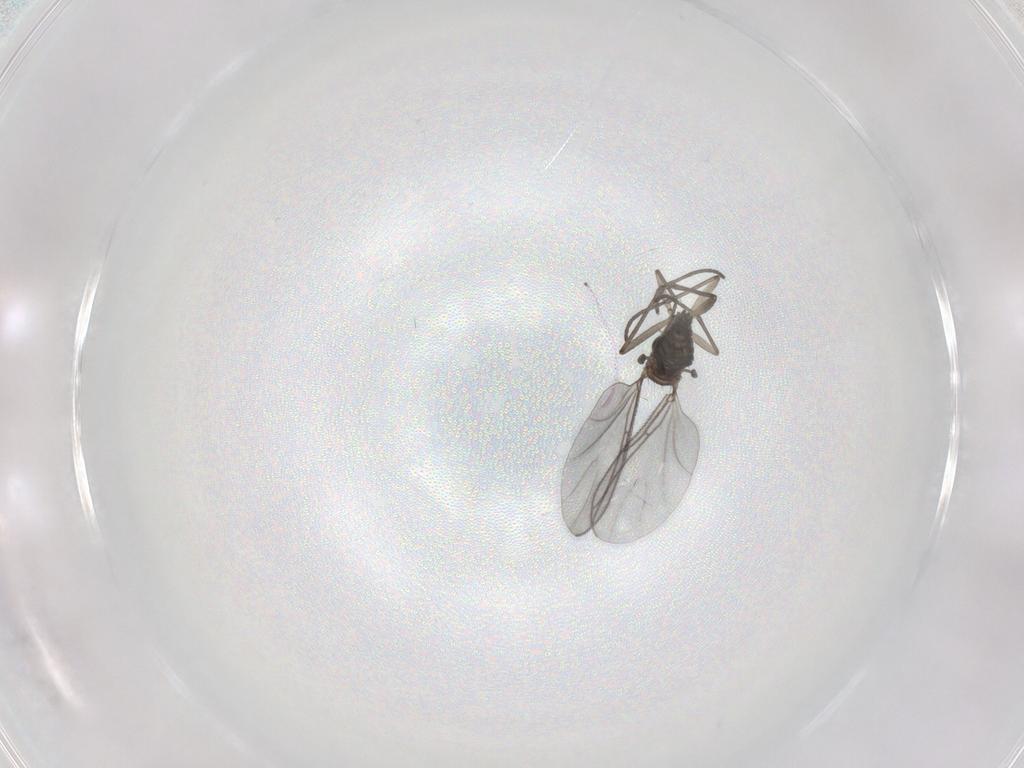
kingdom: Animalia
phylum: Arthropoda
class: Insecta
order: Diptera
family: Sciaridae
